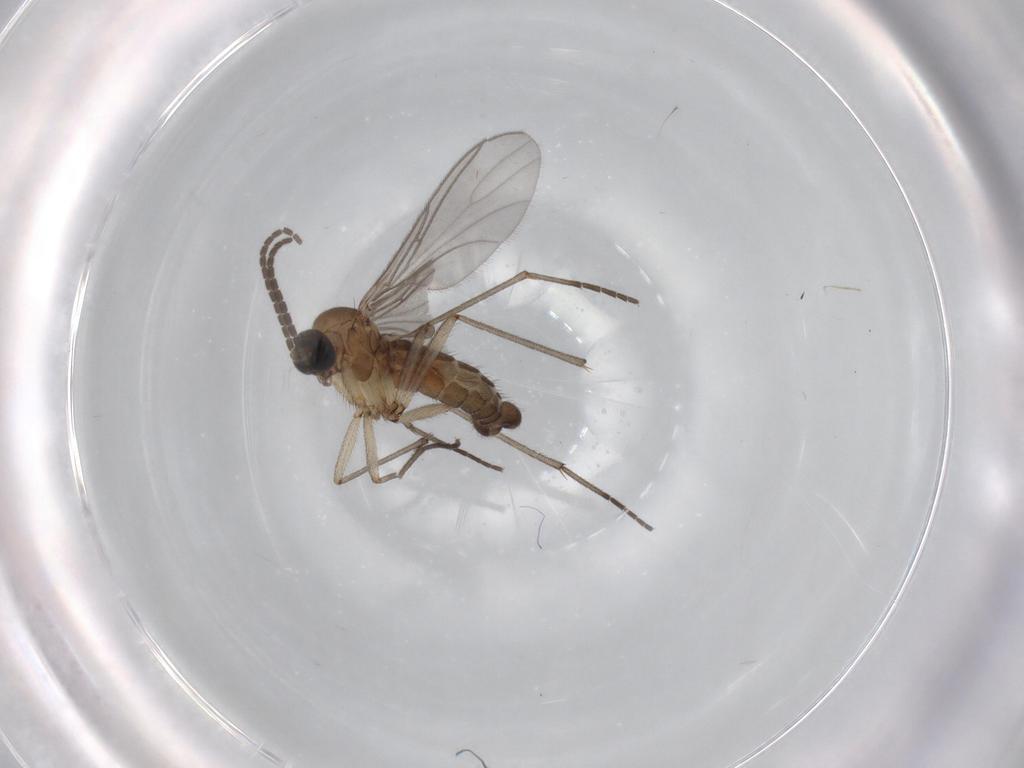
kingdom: Animalia
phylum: Arthropoda
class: Insecta
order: Diptera
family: Sciaridae
